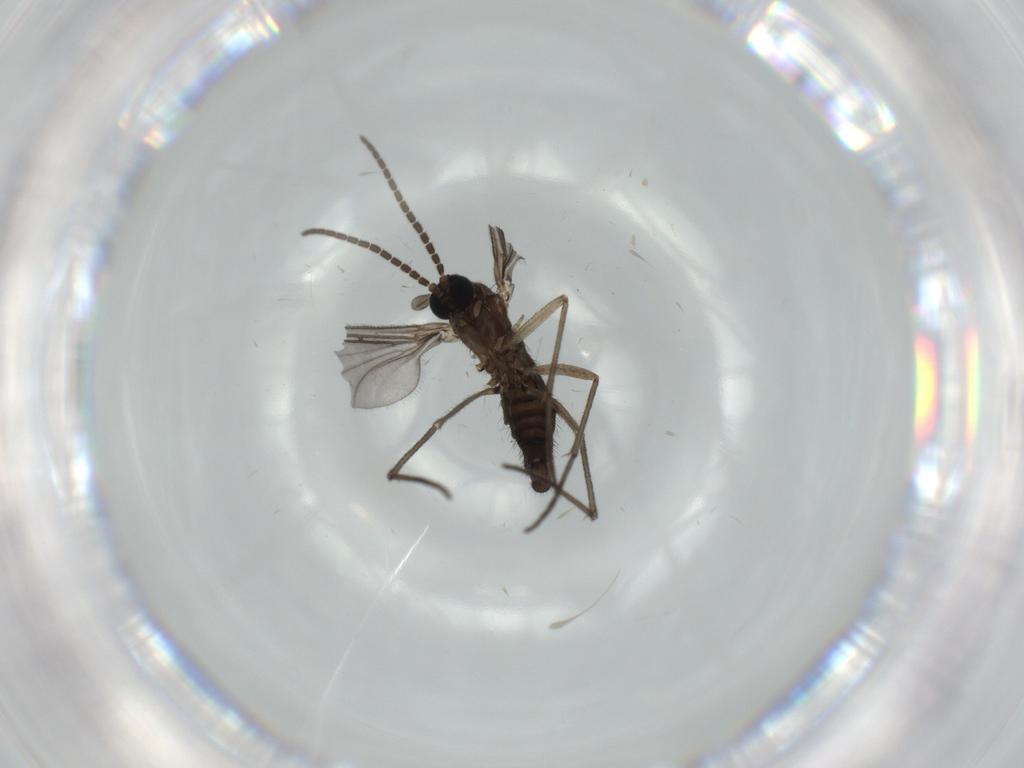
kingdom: Animalia
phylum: Arthropoda
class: Insecta
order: Diptera
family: Sciaridae
